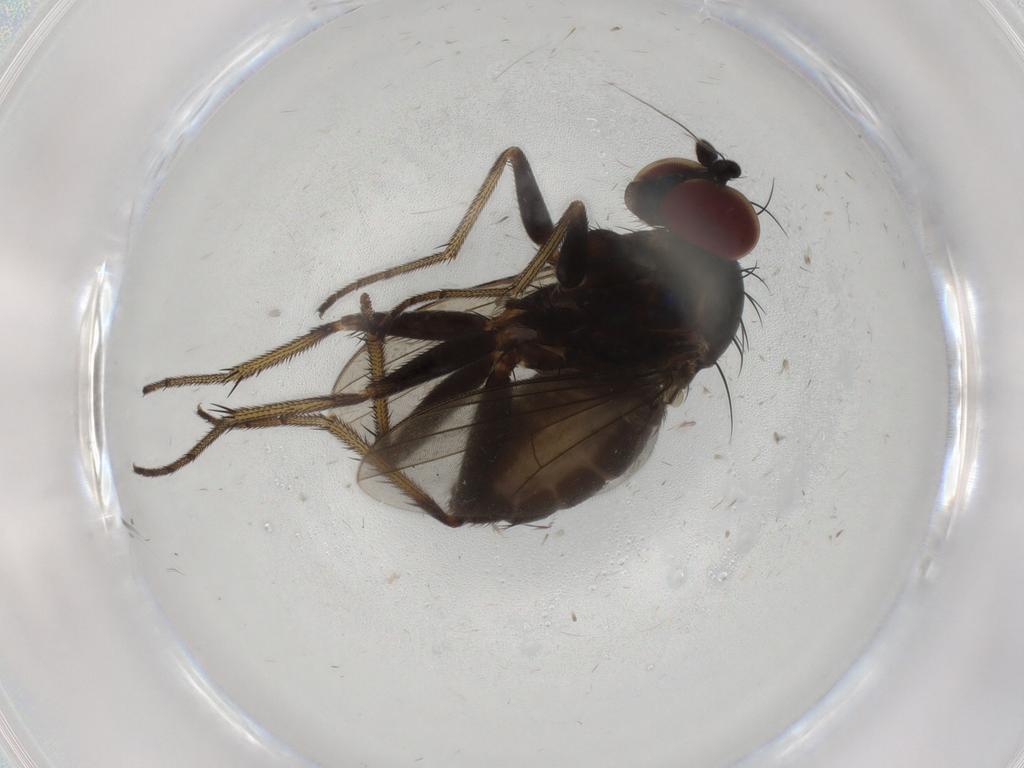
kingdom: Animalia
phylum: Arthropoda
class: Insecta
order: Diptera
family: Dolichopodidae
